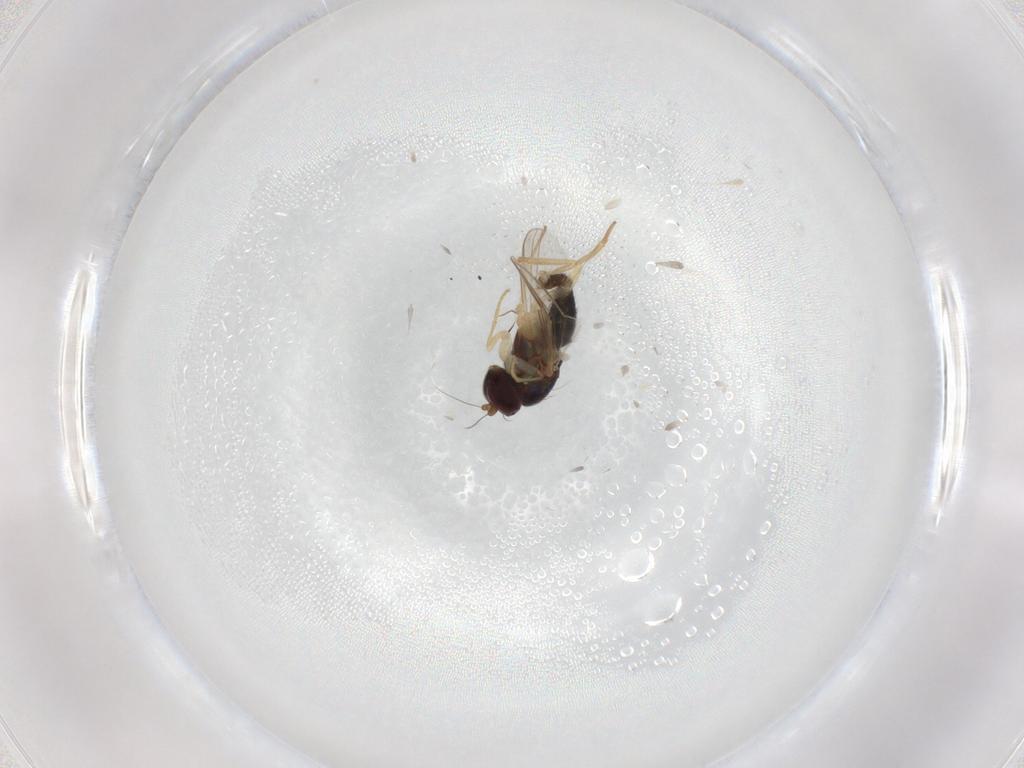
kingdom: Animalia
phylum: Arthropoda
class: Insecta
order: Diptera
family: Dolichopodidae
